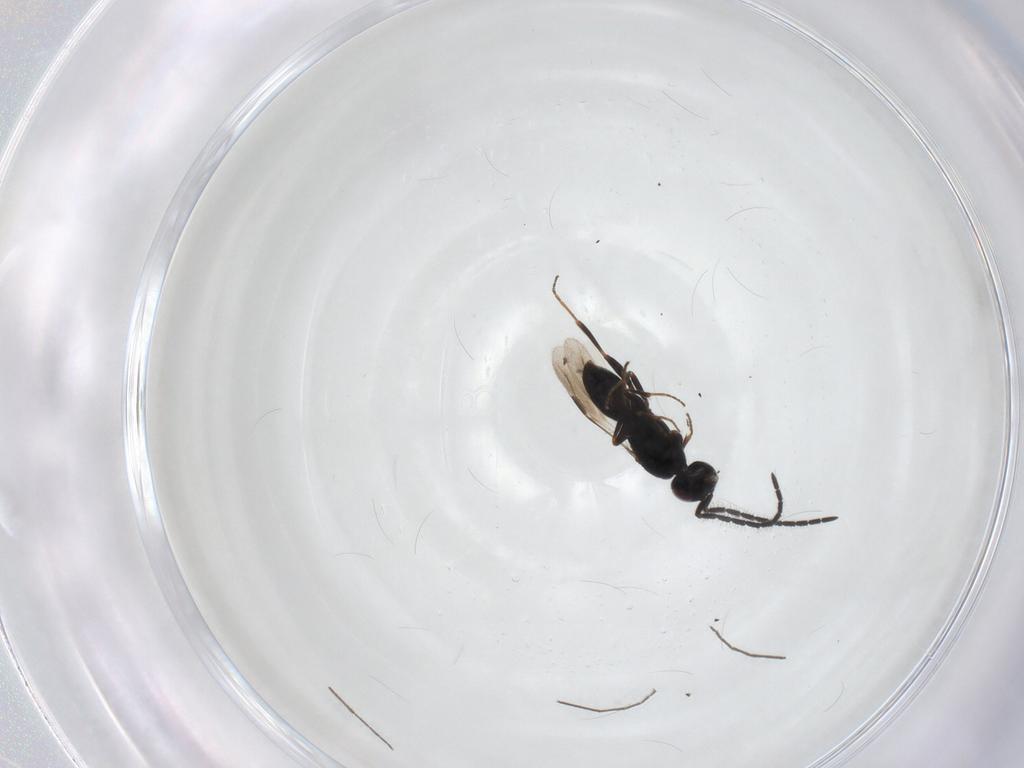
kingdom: Animalia
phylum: Arthropoda
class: Insecta
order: Hymenoptera
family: Megaspilidae
